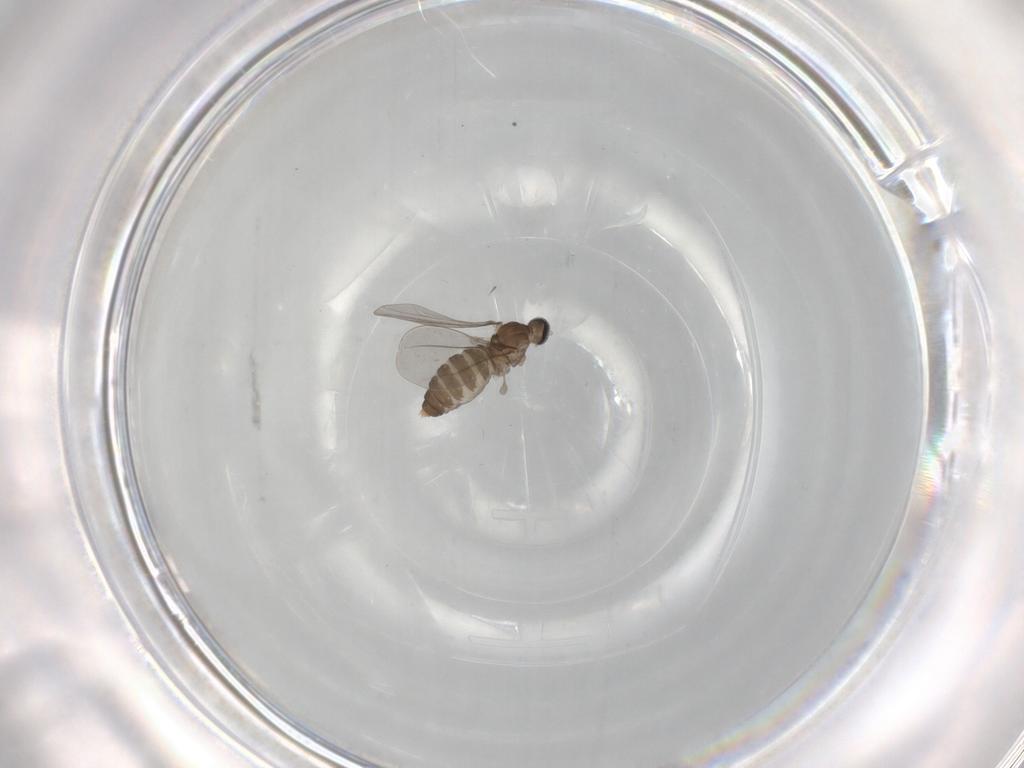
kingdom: Animalia
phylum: Arthropoda
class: Insecta
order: Diptera
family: Cecidomyiidae
